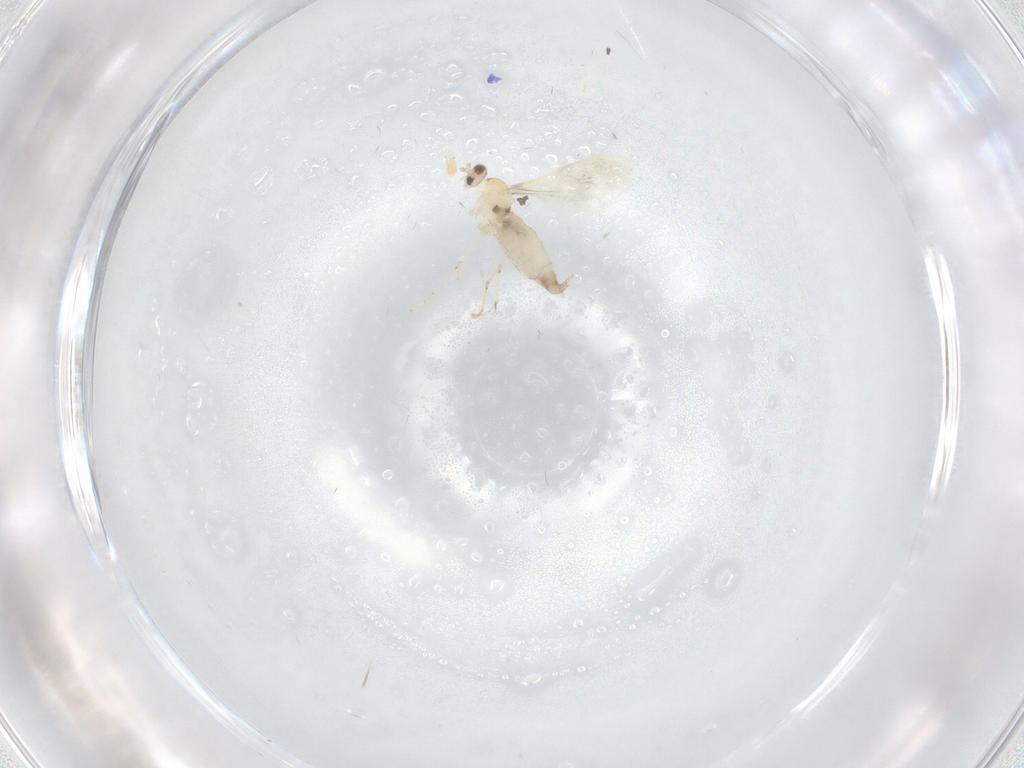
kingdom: Animalia
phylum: Arthropoda
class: Insecta
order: Diptera
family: Cecidomyiidae
